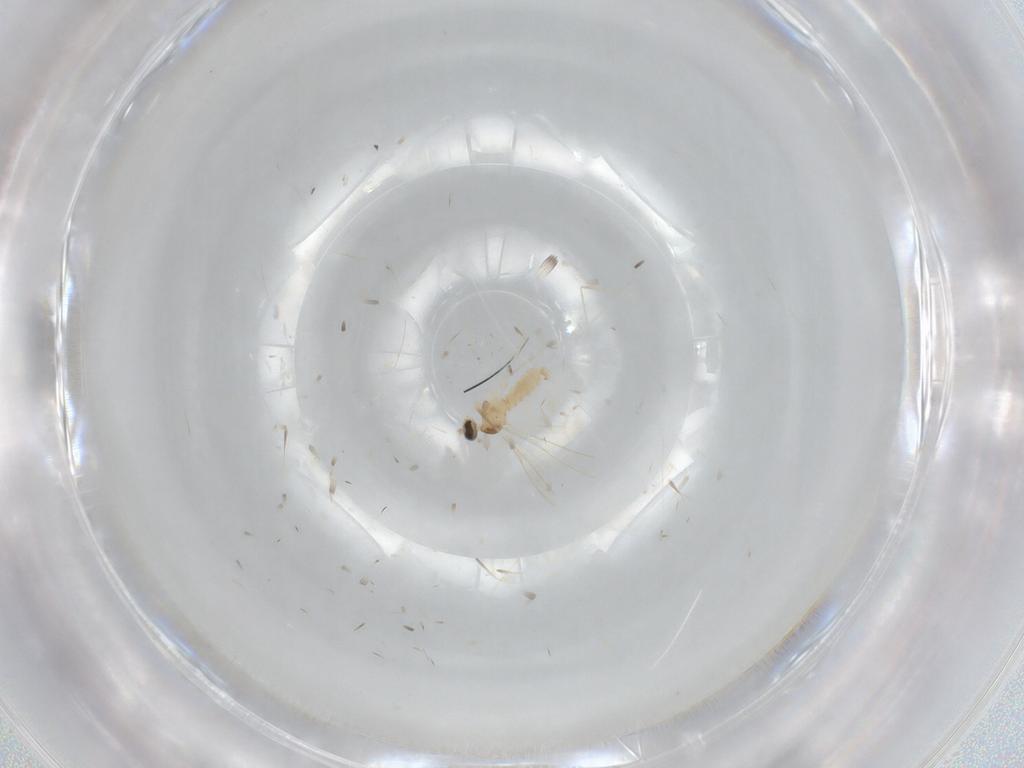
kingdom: Animalia
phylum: Arthropoda
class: Insecta
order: Diptera
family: Cecidomyiidae
